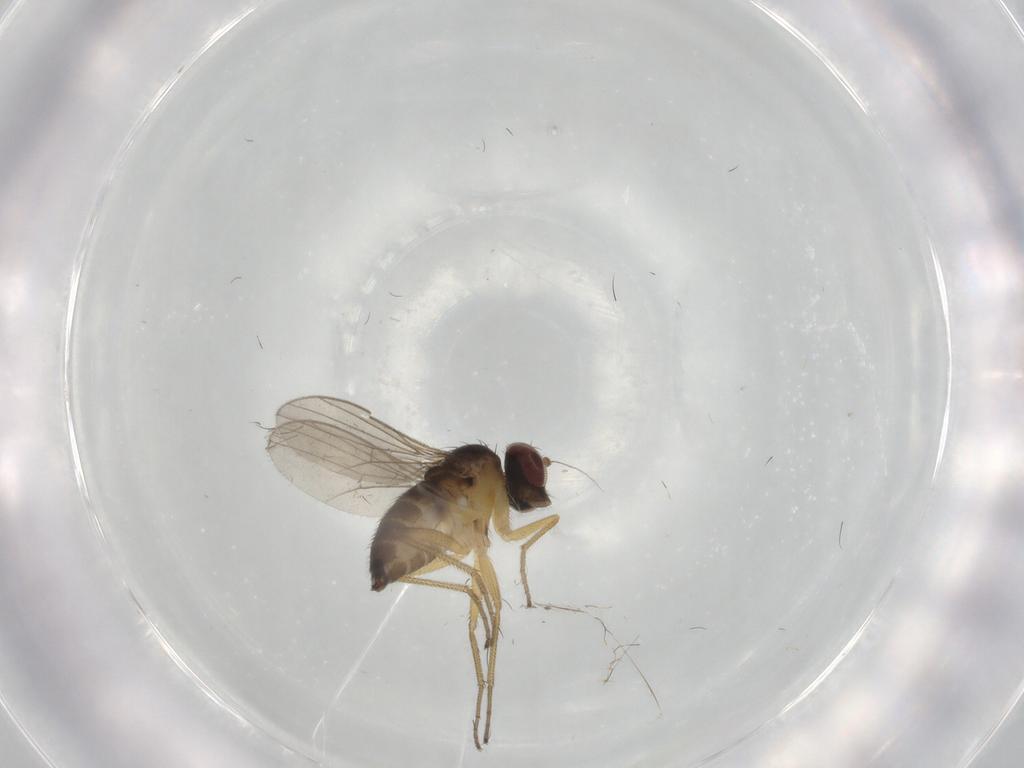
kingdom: Animalia
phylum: Arthropoda
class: Insecta
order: Diptera
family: Dolichopodidae
